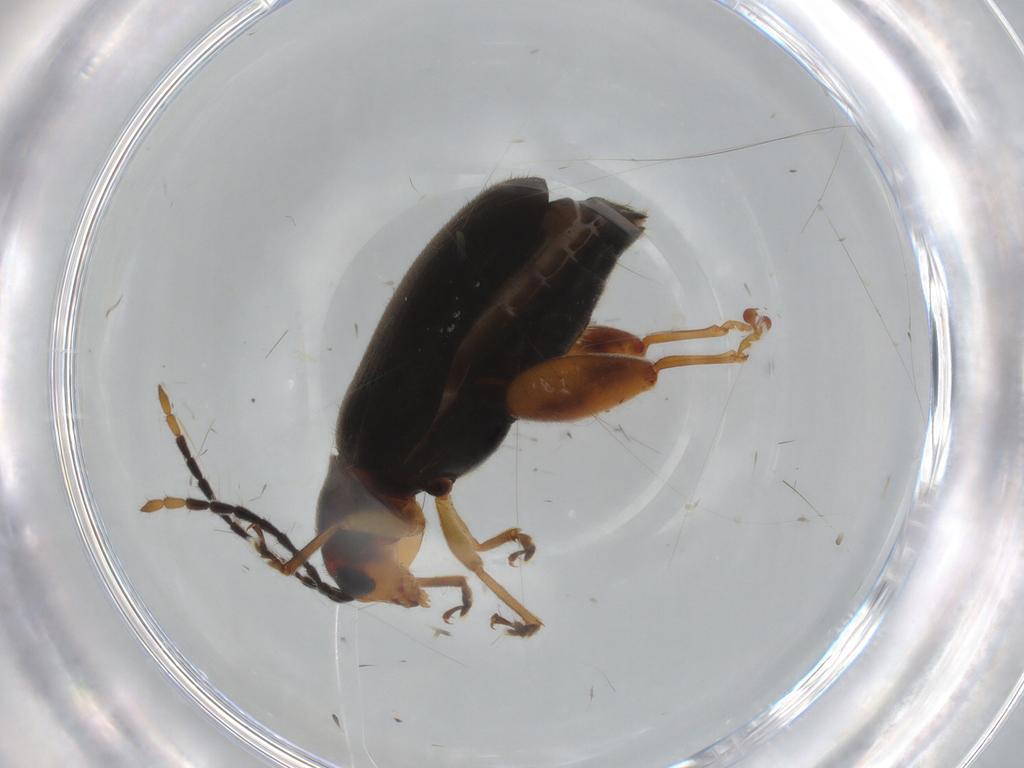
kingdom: Animalia
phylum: Arthropoda
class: Insecta
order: Coleoptera
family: Chrysomelidae
